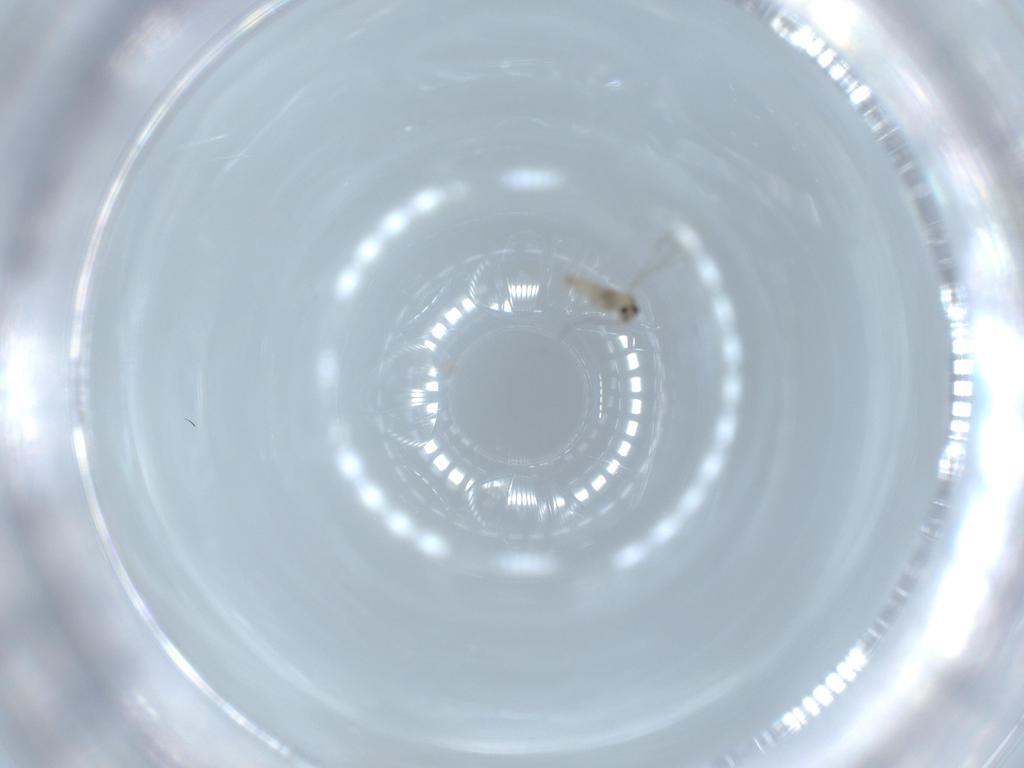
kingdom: Animalia
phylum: Arthropoda
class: Insecta
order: Diptera
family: Cecidomyiidae
